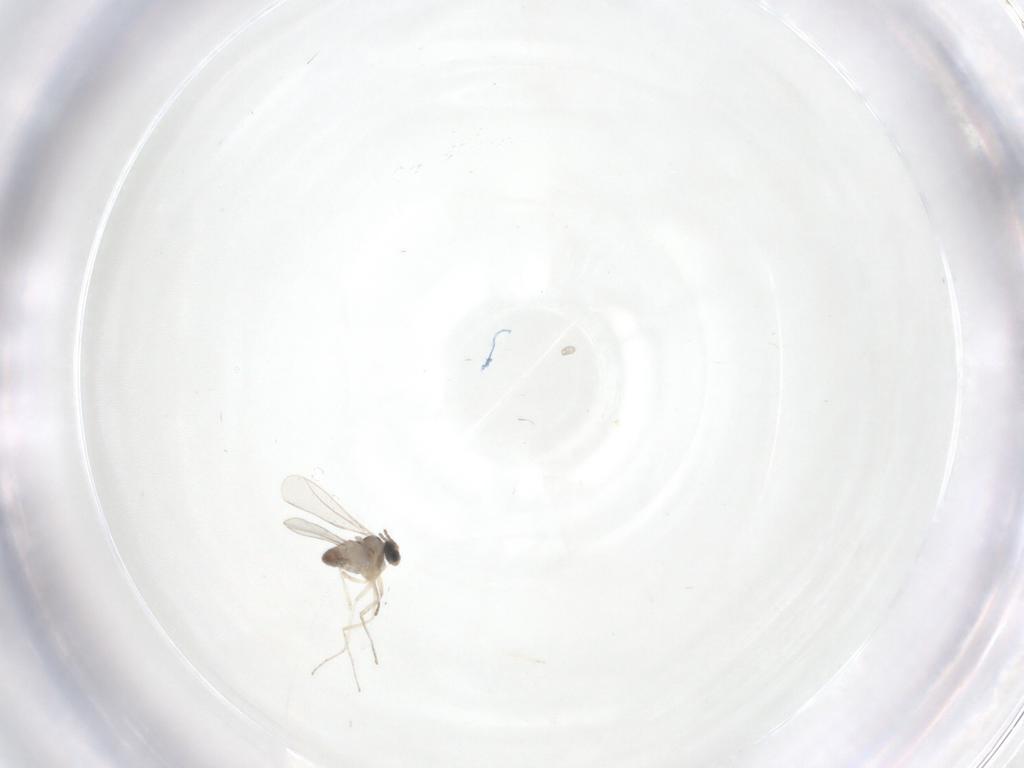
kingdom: Animalia
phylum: Arthropoda
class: Insecta
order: Diptera
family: Cecidomyiidae
